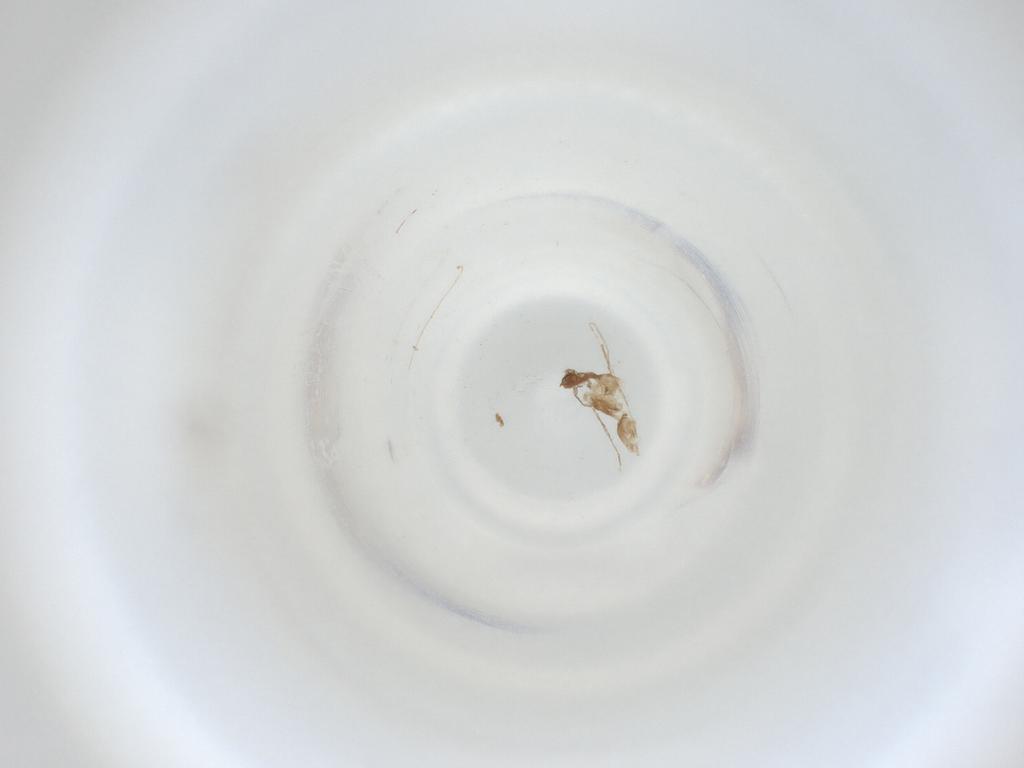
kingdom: Animalia
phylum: Arthropoda
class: Insecta
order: Diptera
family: Cecidomyiidae
